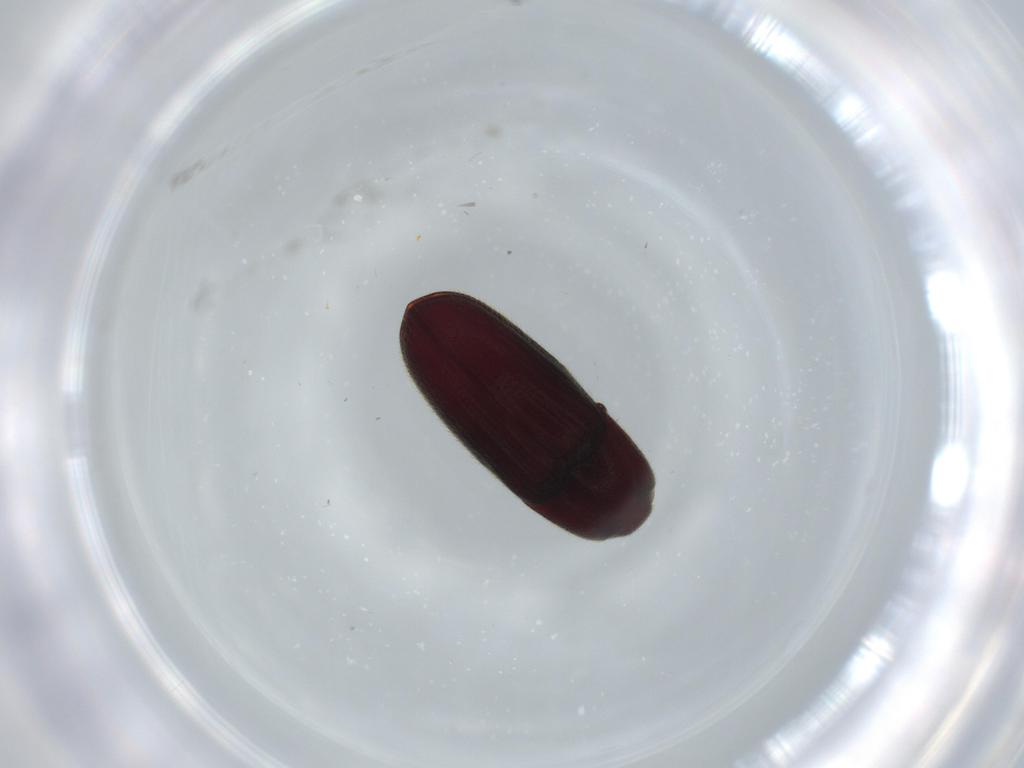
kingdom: Animalia
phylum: Arthropoda
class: Insecta
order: Coleoptera
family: Throscidae
